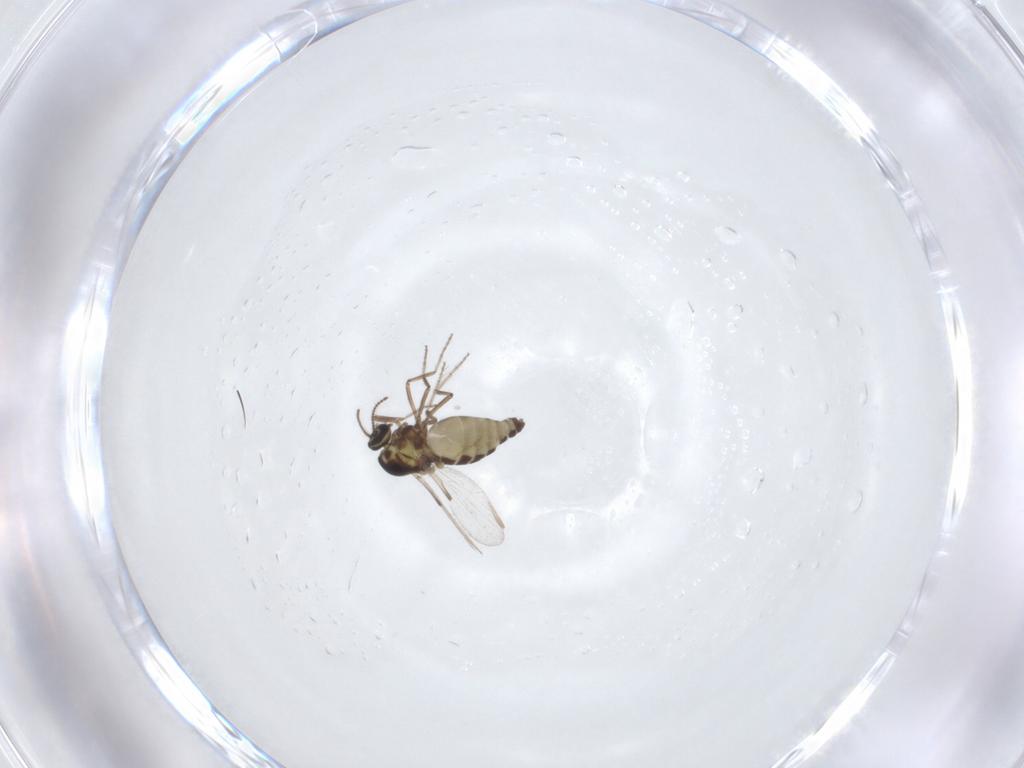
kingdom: Animalia
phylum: Arthropoda
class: Insecta
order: Diptera
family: Ceratopogonidae
